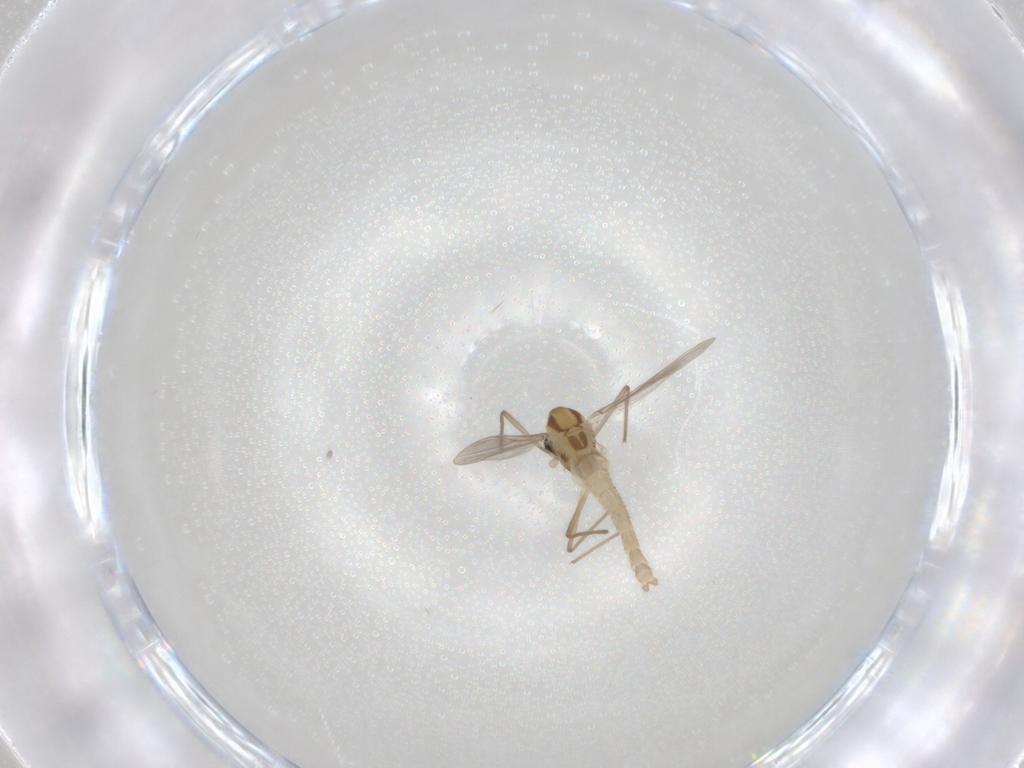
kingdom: Animalia
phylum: Arthropoda
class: Insecta
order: Diptera
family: Chironomidae
